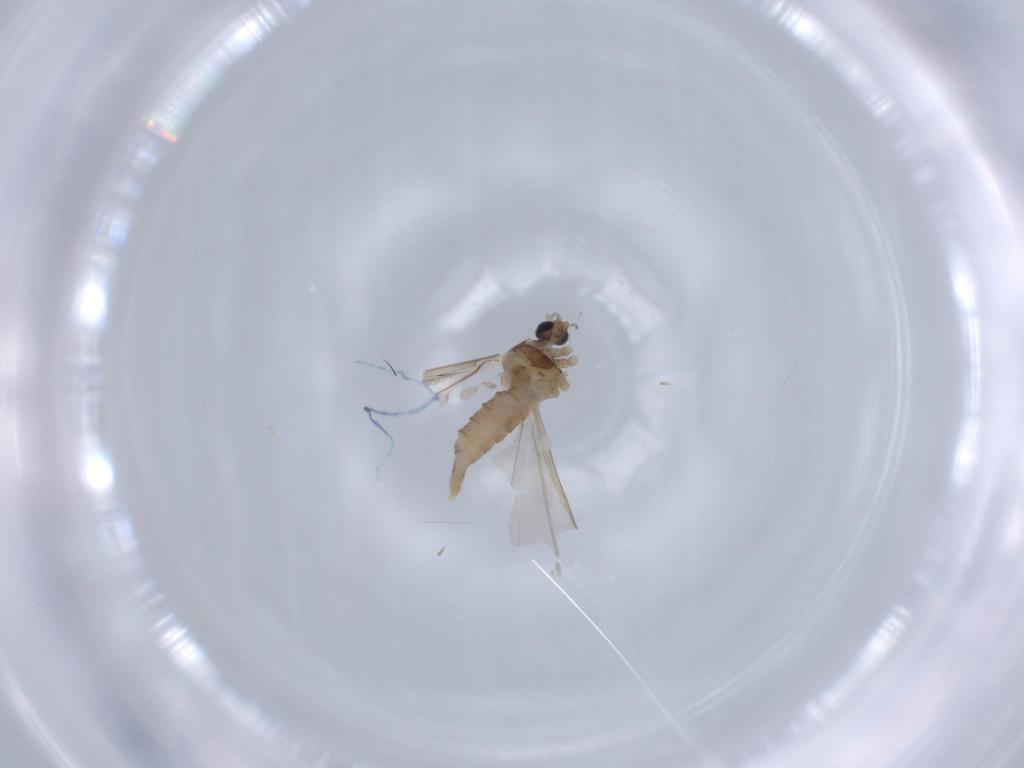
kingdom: Animalia
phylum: Arthropoda
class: Insecta
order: Diptera
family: Cecidomyiidae
